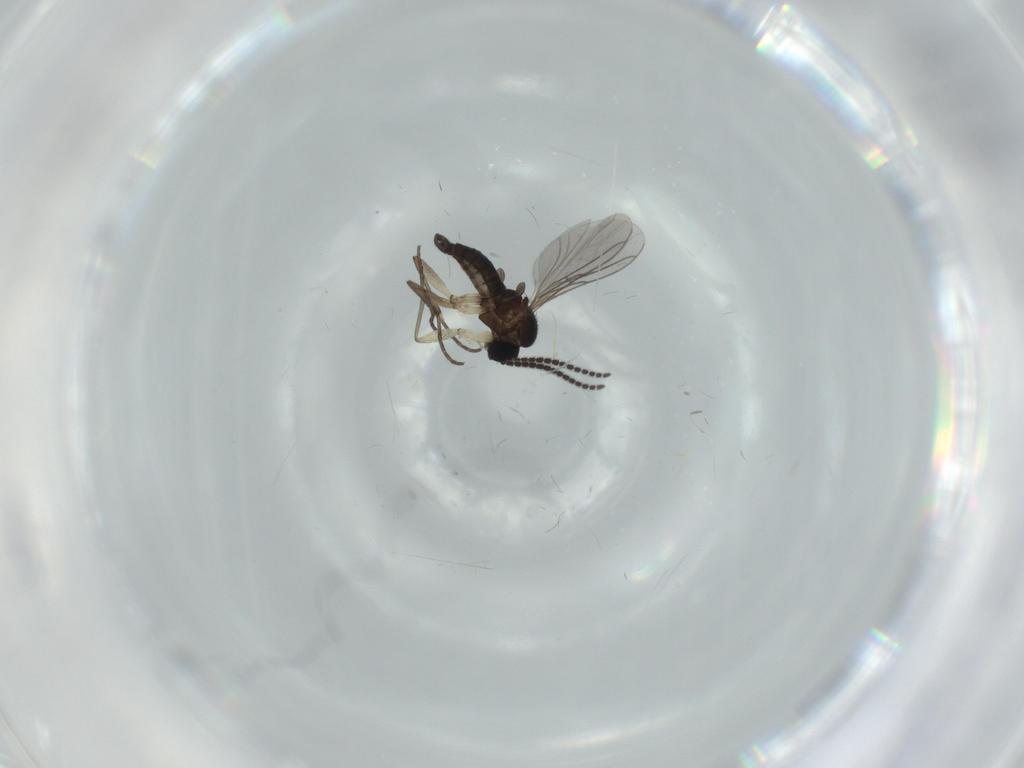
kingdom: Animalia
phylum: Arthropoda
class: Insecta
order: Diptera
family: Sciaridae
